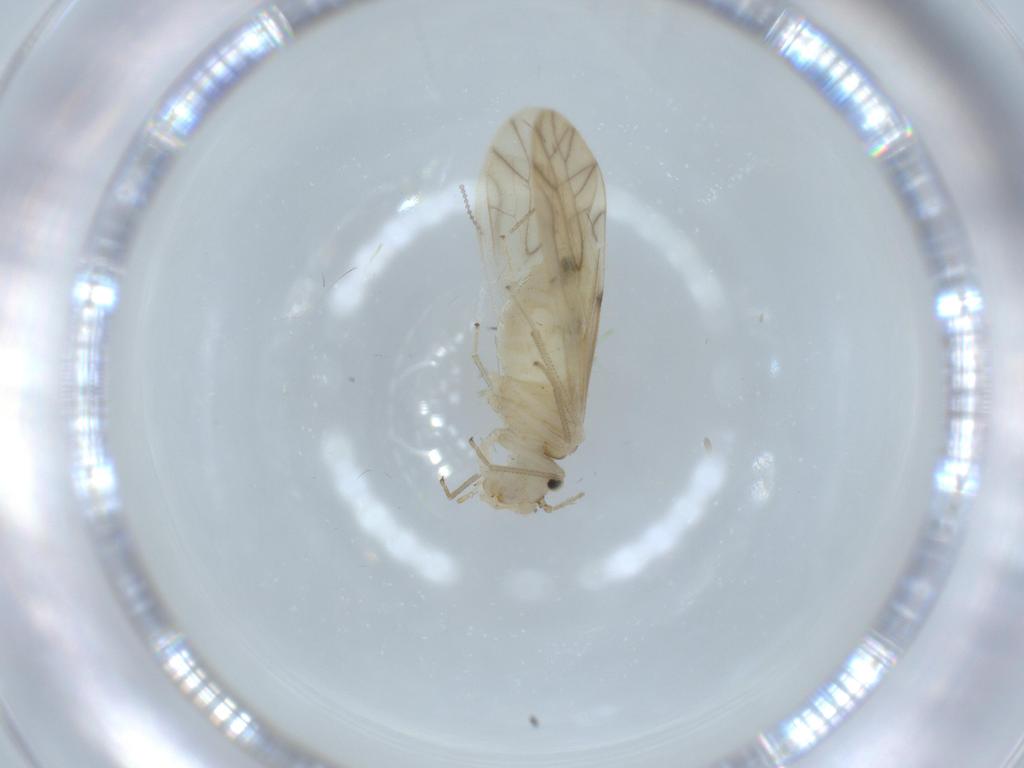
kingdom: Animalia
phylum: Arthropoda
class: Insecta
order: Psocodea
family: Caeciliusidae
